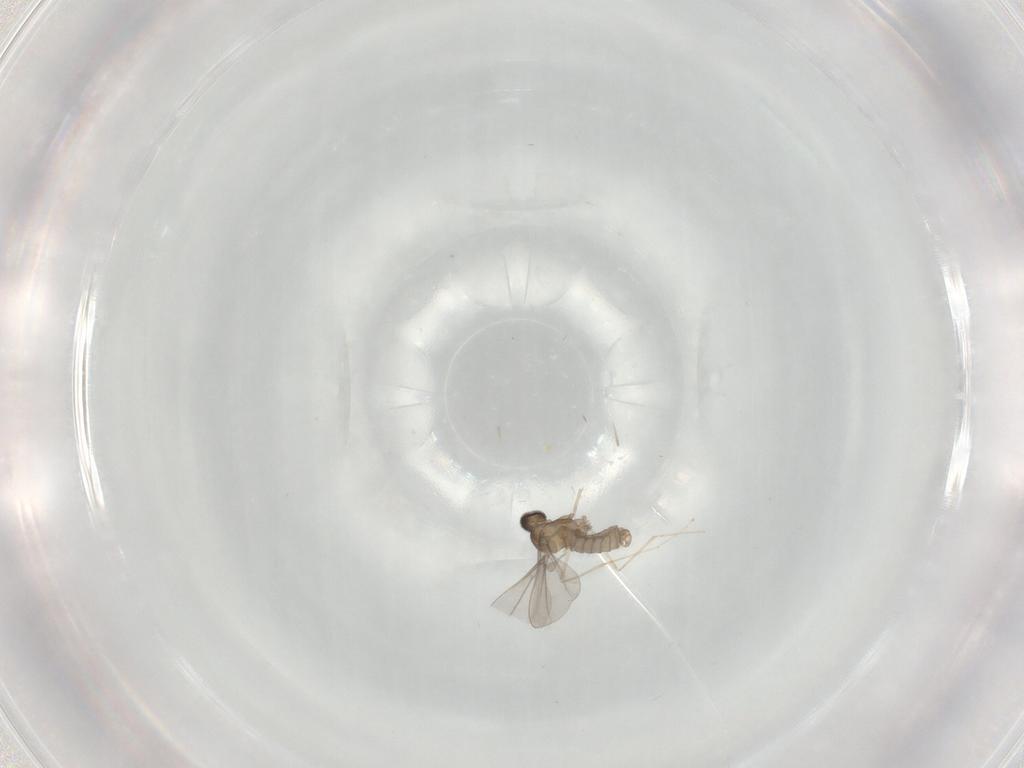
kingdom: Animalia
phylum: Arthropoda
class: Insecta
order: Diptera
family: Cecidomyiidae
